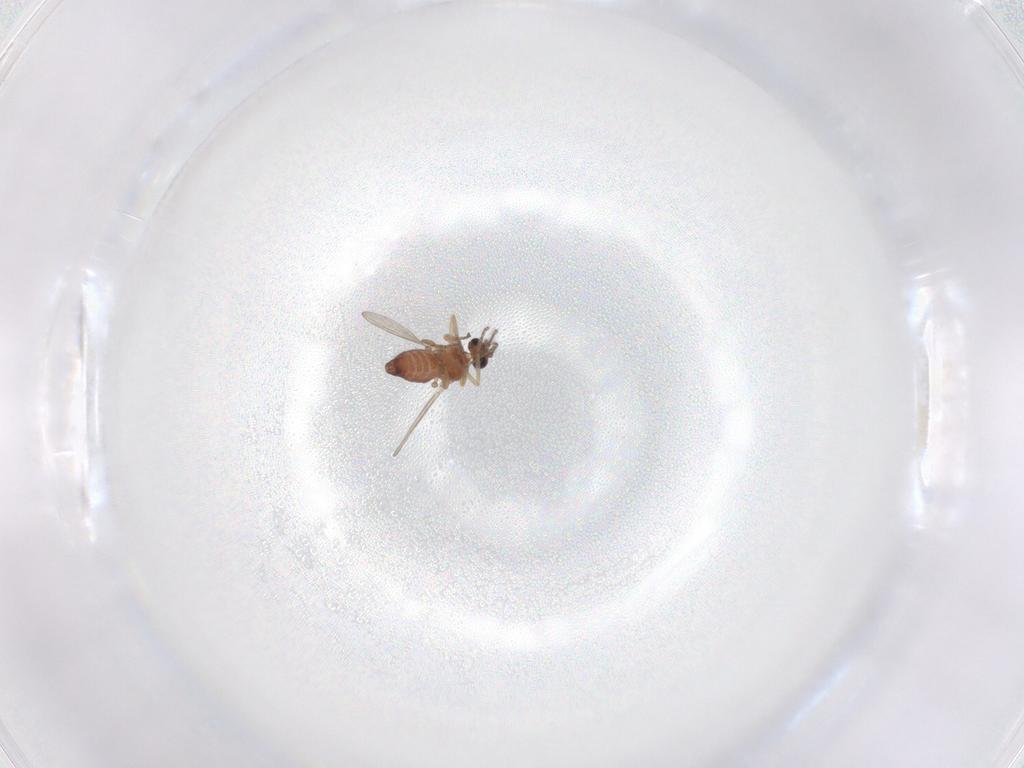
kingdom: Animalia
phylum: Arthropoda
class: Insecta
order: Diptera
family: Ceratopogonidae
